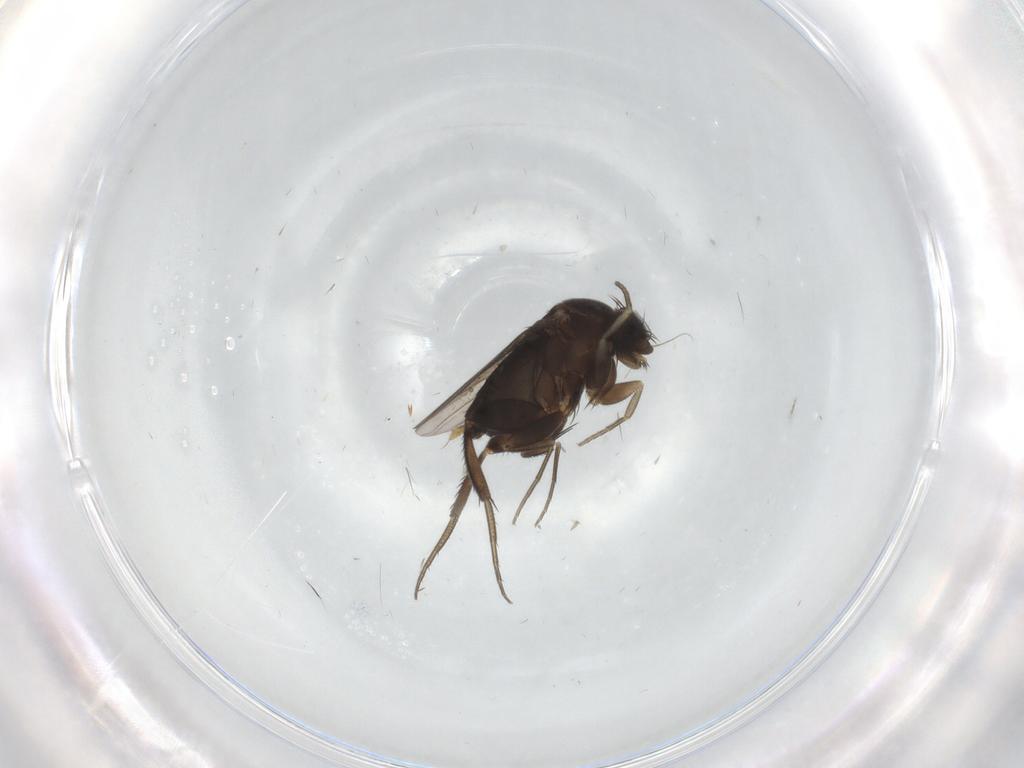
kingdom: Animalia
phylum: Arthropoda
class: Insecta
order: Diptera
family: Phoridae
